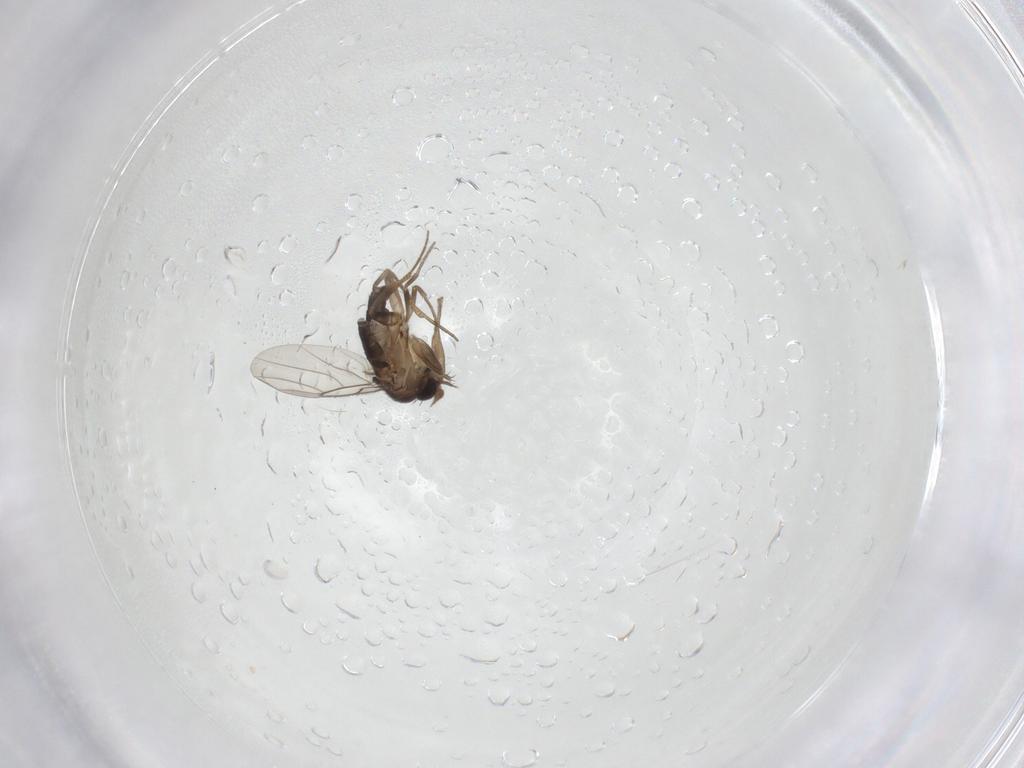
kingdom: Animalia
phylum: Arthropoda
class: Insecta
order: Diptera
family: Phoridae
